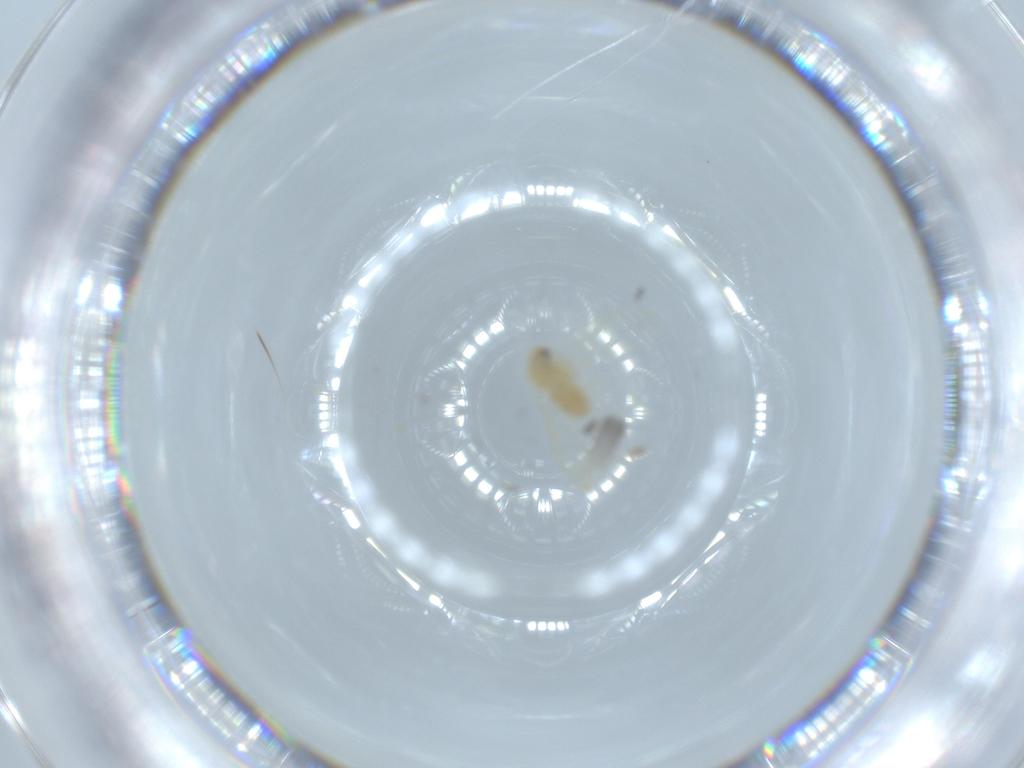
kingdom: Animalia
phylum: Arthropoda
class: Insecta
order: Hemiptera
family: Aleyrodidae
